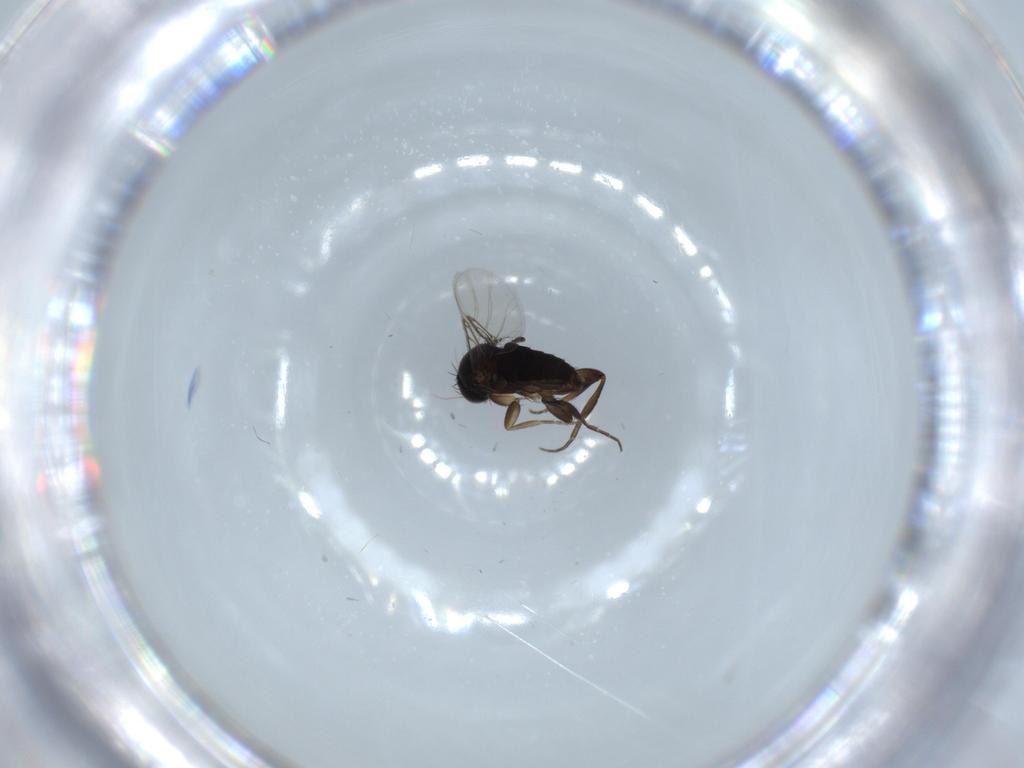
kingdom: Animalia
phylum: Arthropoda
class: Insecta
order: Diptera
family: Phoridae
